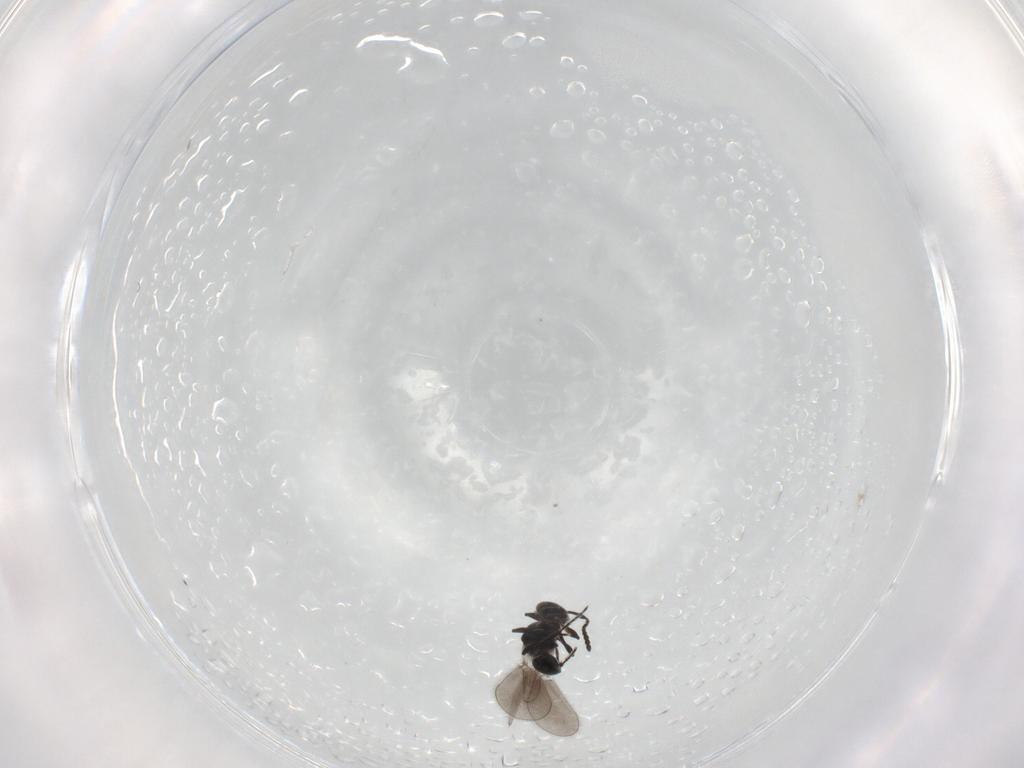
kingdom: Animalia
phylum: Arthropoda
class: Insecta
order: Hymenoptera
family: Platygastridae
